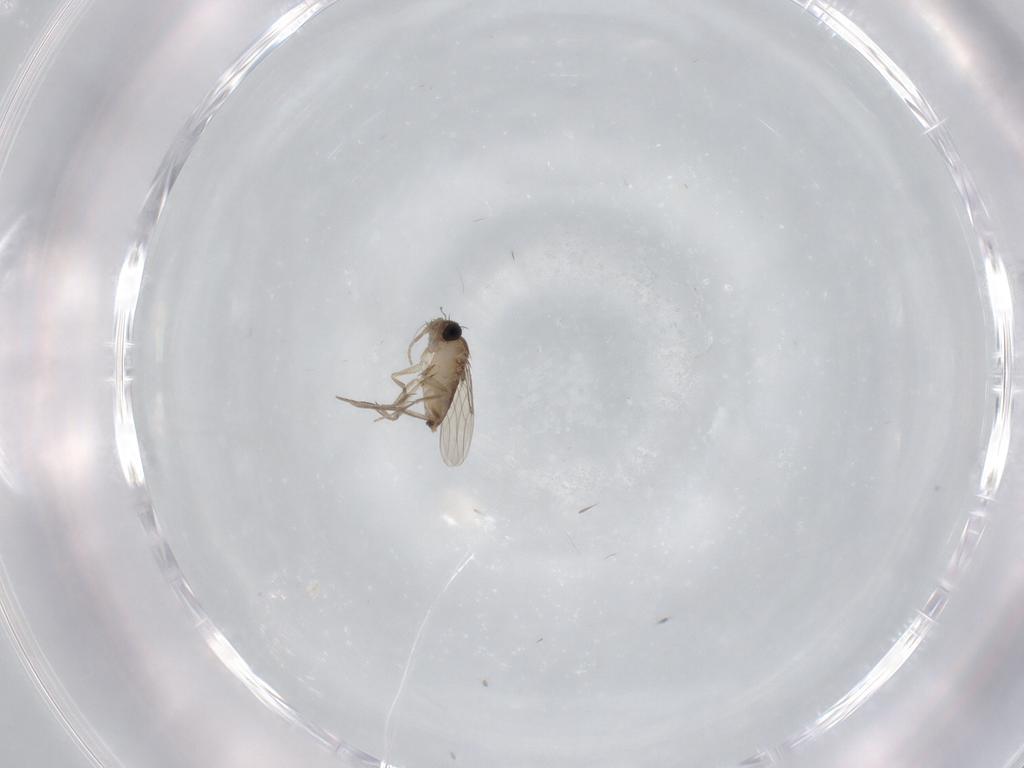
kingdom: Animalia
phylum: Arthropoda
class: Insecta
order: Diptera
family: Phoridae
